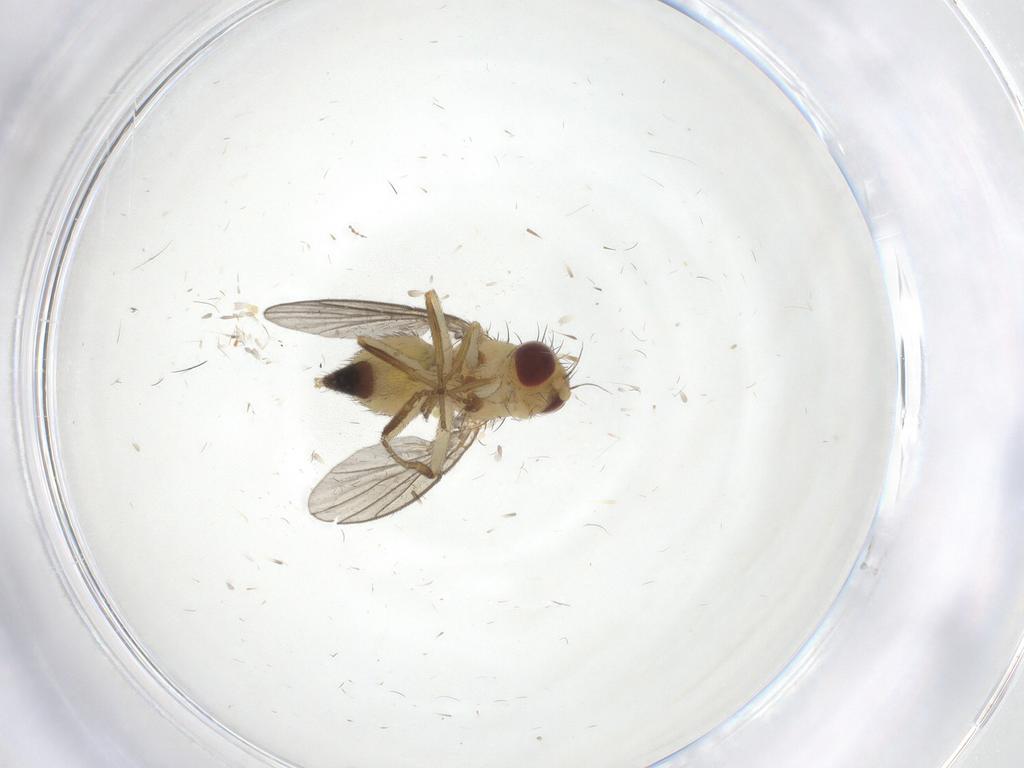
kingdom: Animalia
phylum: Arthropoda
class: Insecta
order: Diptera
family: Agromyzidae
